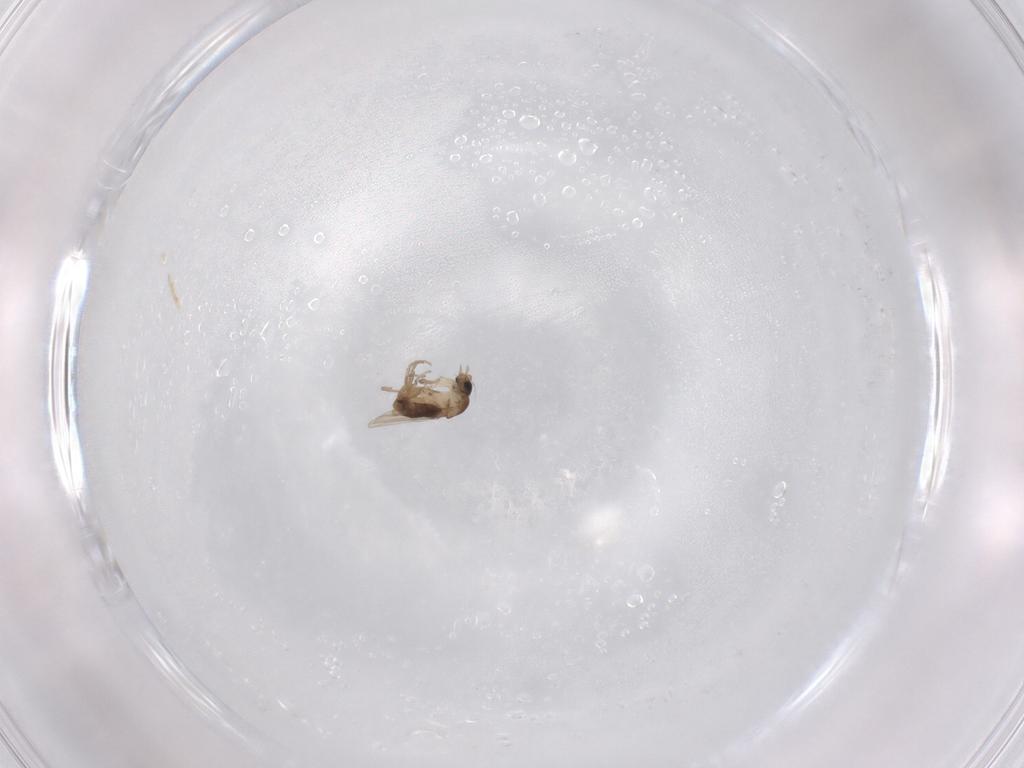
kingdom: Animalia
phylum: Arthropoda
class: Insecta
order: Diptera
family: Phoridae
